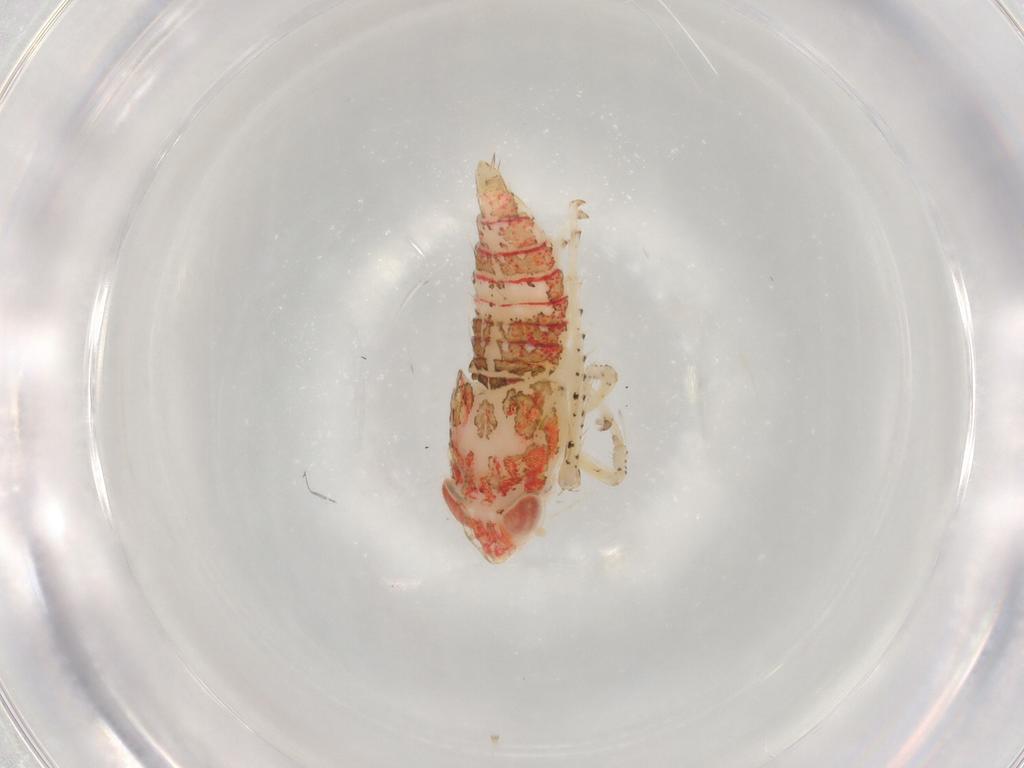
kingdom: Animalia
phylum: Arthropoda
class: Insecta
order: Hemiptera
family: Cicadellidae
